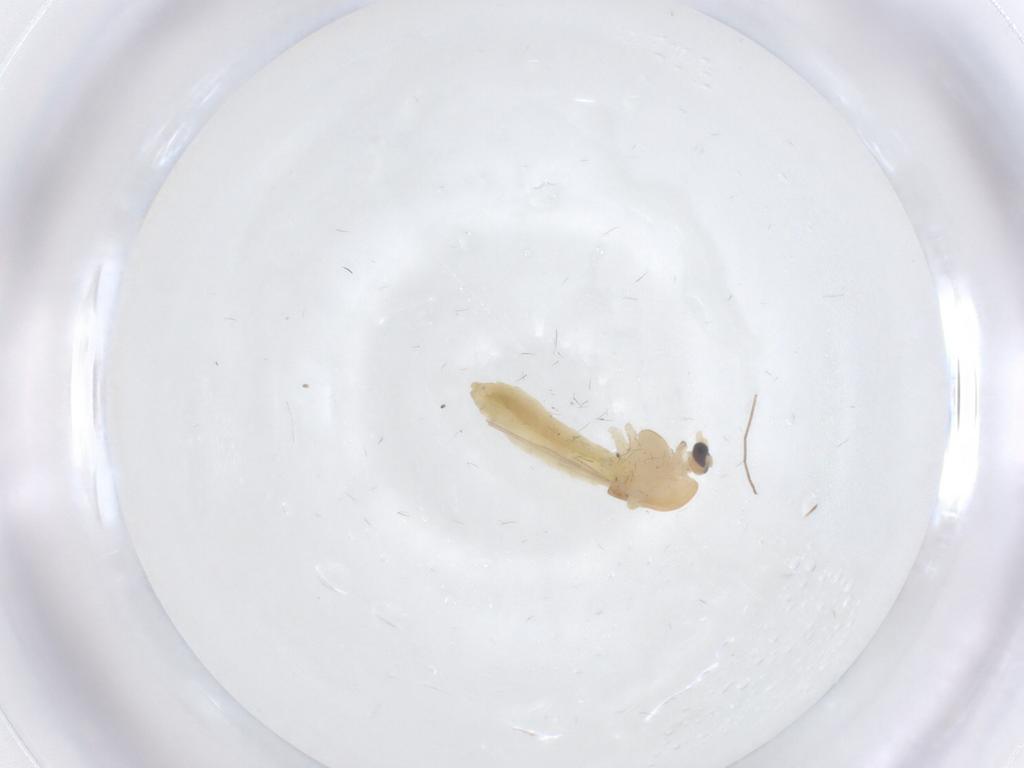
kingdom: Animalia
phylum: Arthropoda
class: Insecta
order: Diptera
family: Chironomidae
